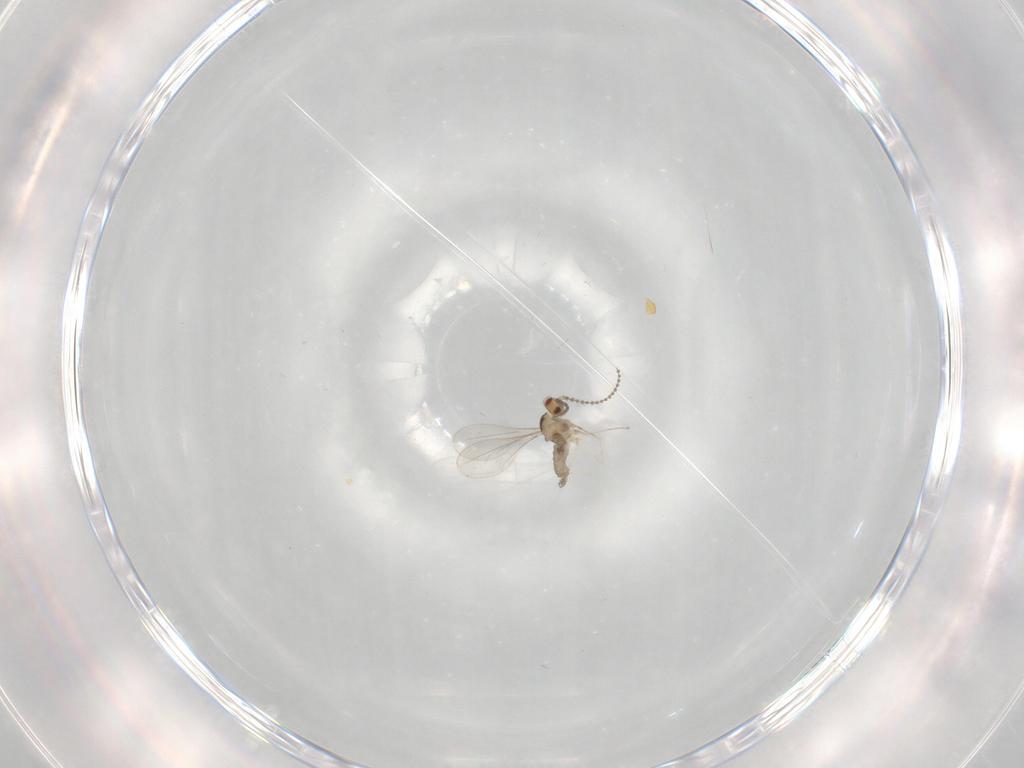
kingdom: Animalia
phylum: Arthropoda
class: Insecta
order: Diptera
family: Cecidomyiidae
